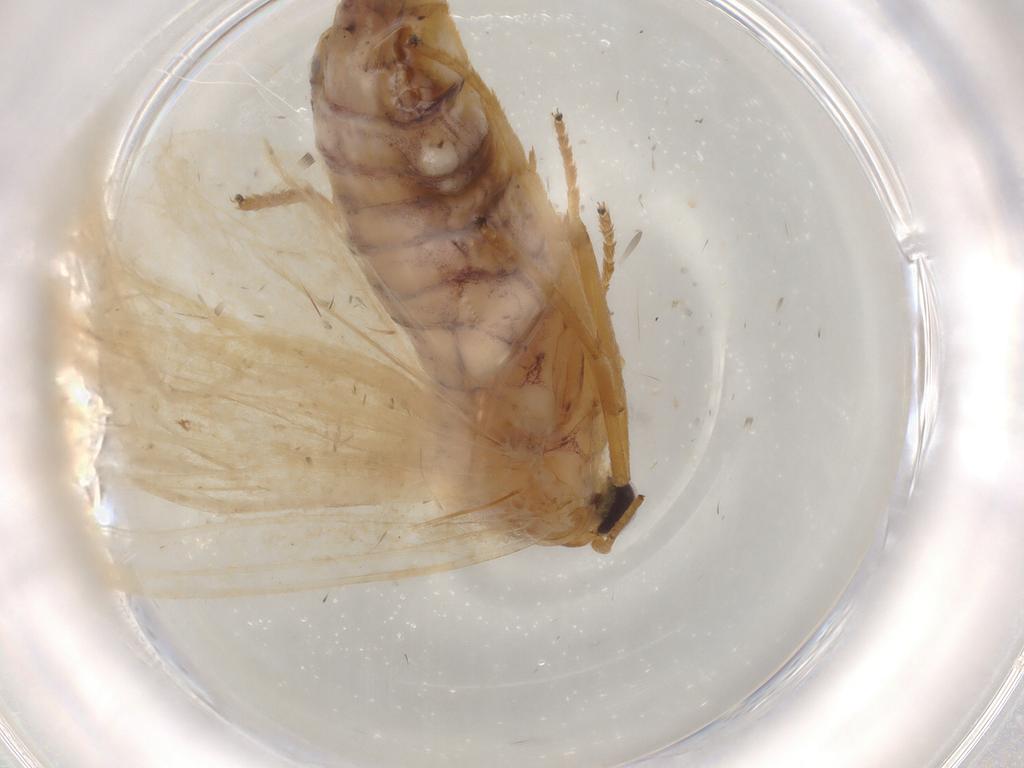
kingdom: Animalia
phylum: Arthropoda
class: Insecta
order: Lepidoptera
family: Erebidae
